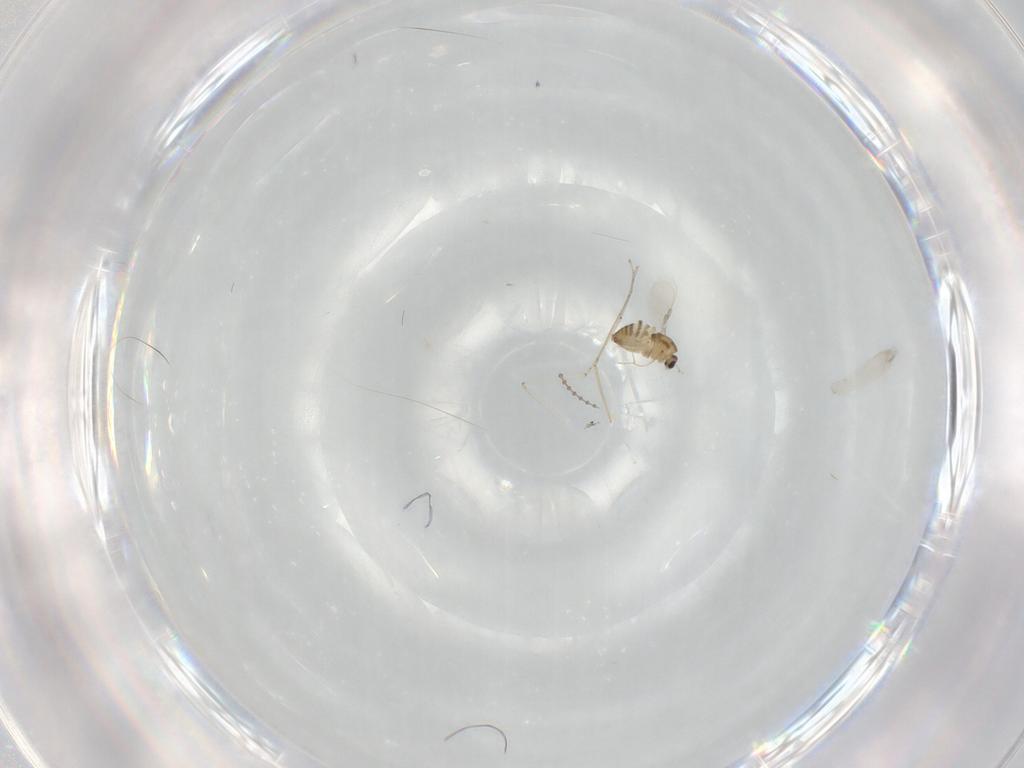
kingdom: Animalia
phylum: Arthropoda
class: Insecta
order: Diptera
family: Chironomidae
